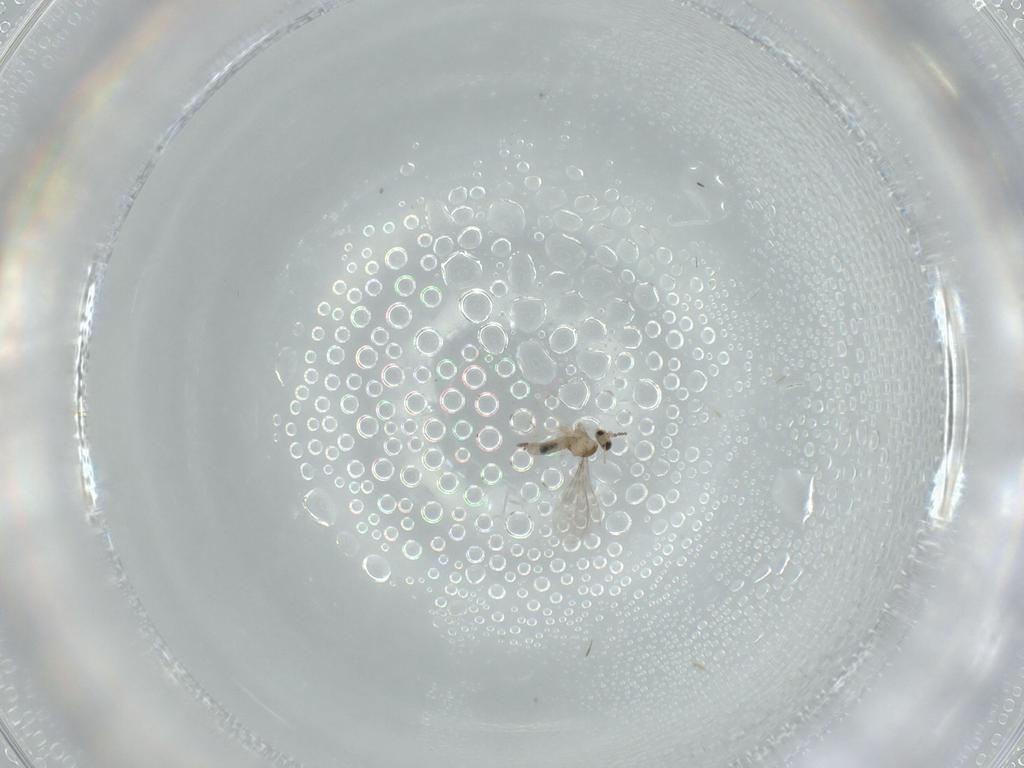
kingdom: Animalia
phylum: Arthropoda
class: Insecta
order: Diptera
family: Cecidomyiidae
